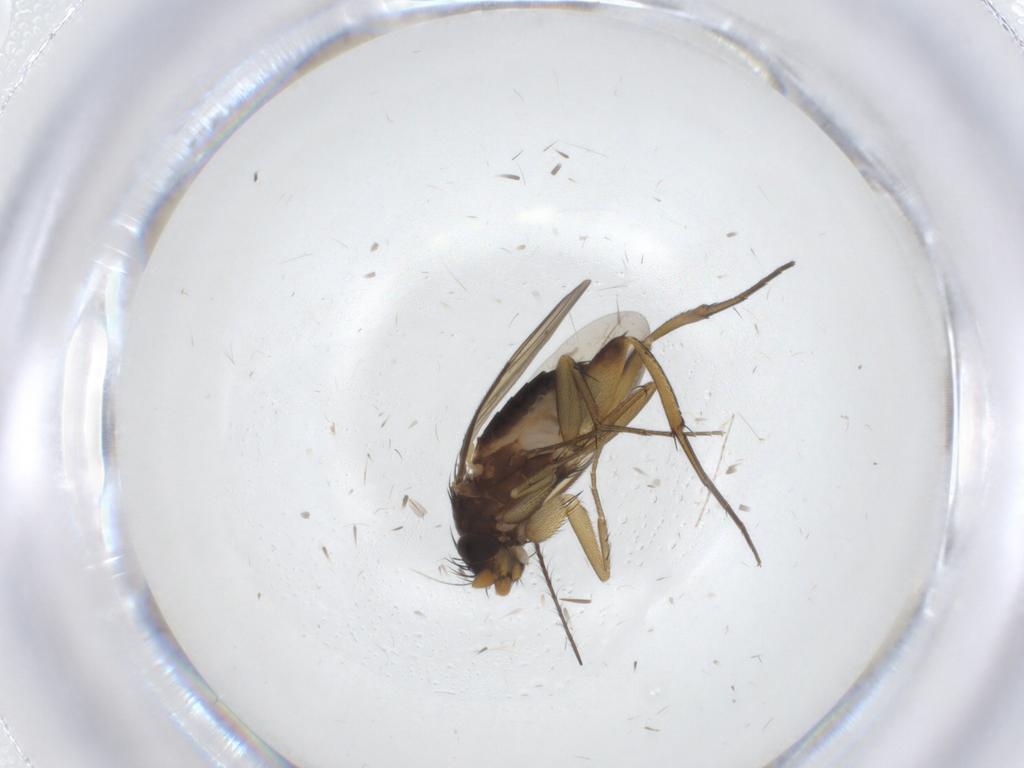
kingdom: Animalia
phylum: Arthropoda
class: Insecta
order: Diptera
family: Phoridae
